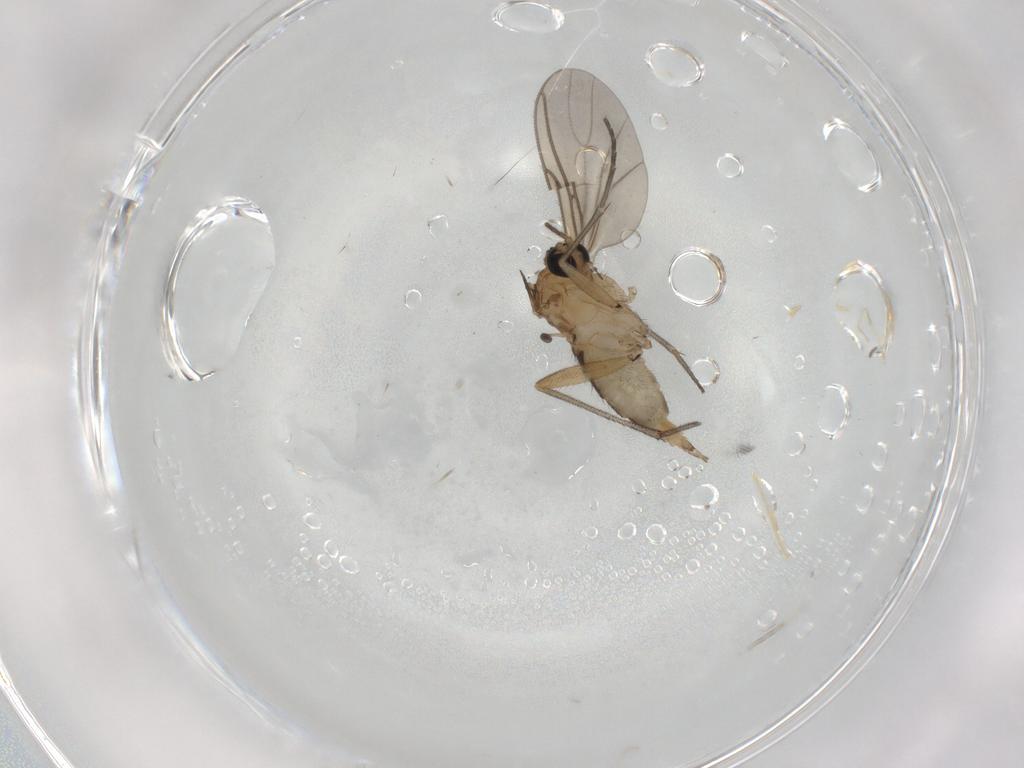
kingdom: Animalia
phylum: Arthropoda
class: Insecta
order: Diptera
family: Sciaridae
